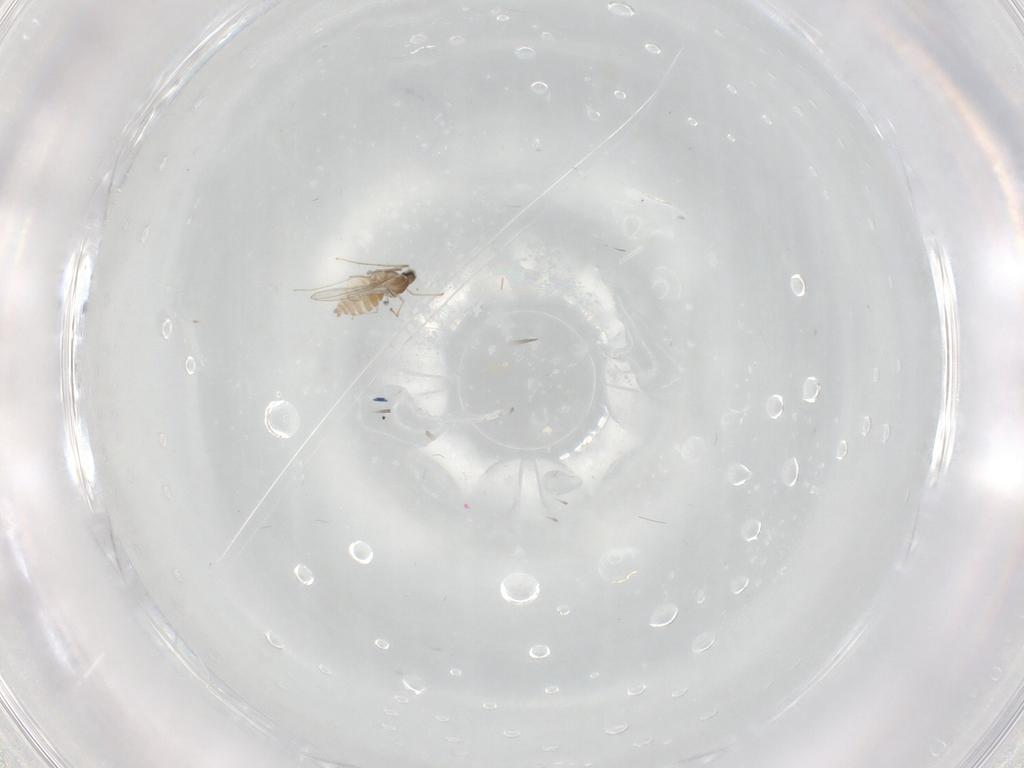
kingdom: Animalia
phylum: Arthropoda
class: Insecta
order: Diptera
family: Cecidomyiidae
